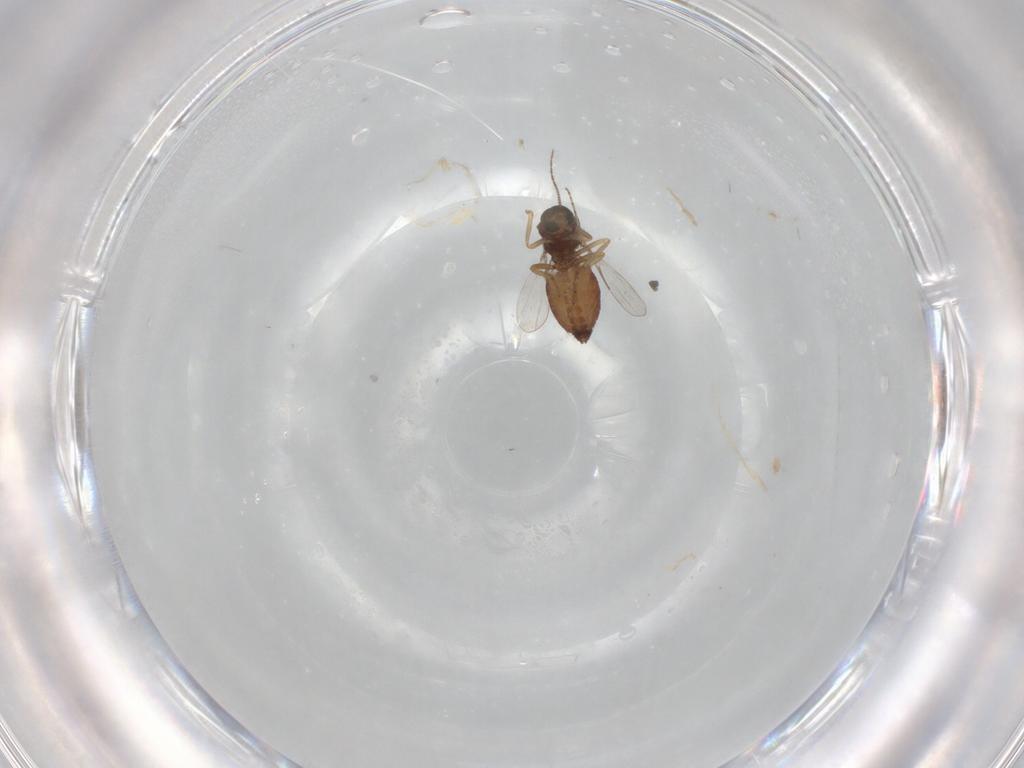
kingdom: Animalia
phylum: Arthropoda
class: Insecta
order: Diptera
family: Ceratopogonidae
